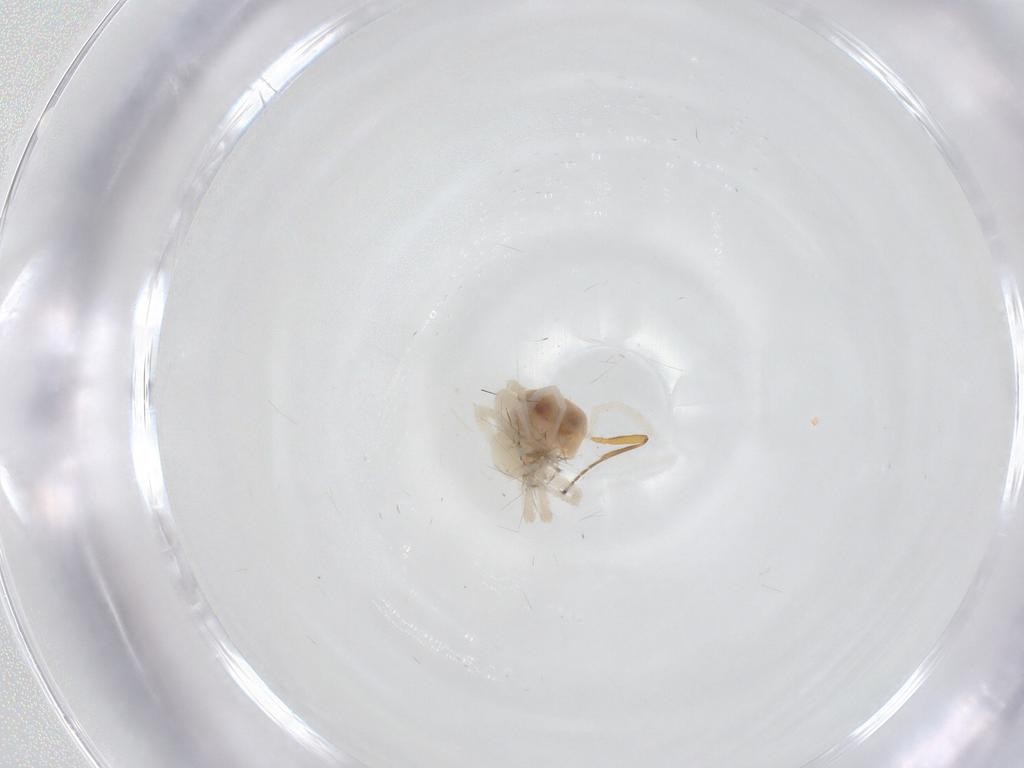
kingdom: Animalia
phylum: Arthropoda
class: Arachnida
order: Trombidiformes
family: Anystidae
